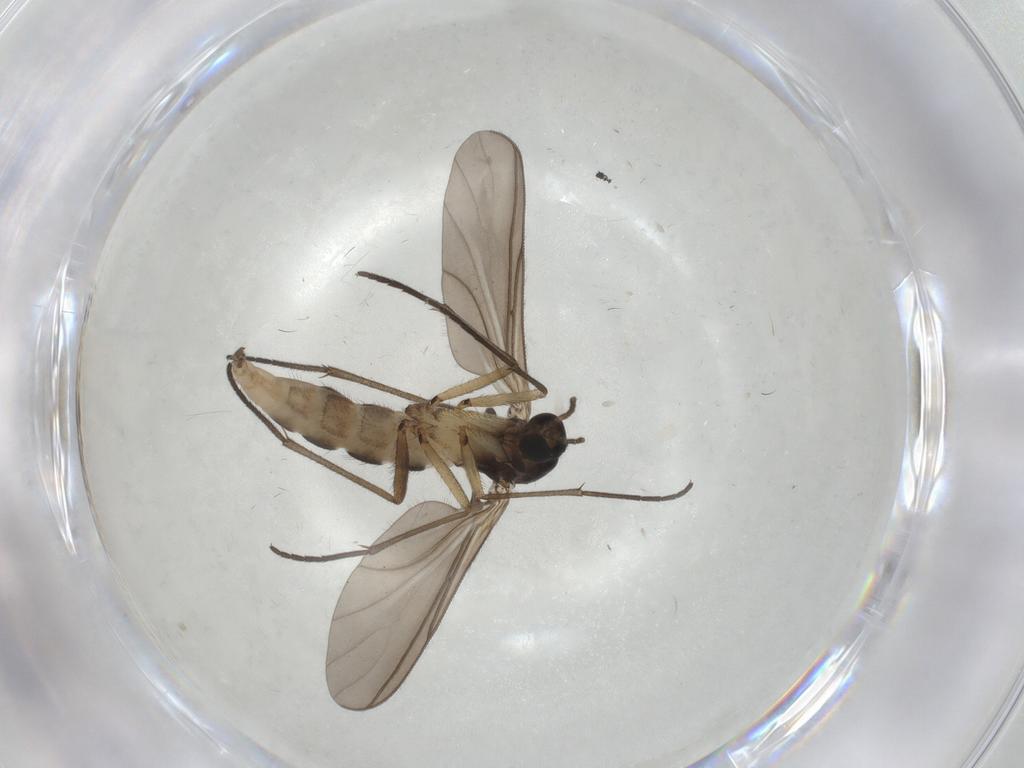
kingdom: Animalia
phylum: Arthropoda
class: Insecta
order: Diptera
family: Sciaridae
